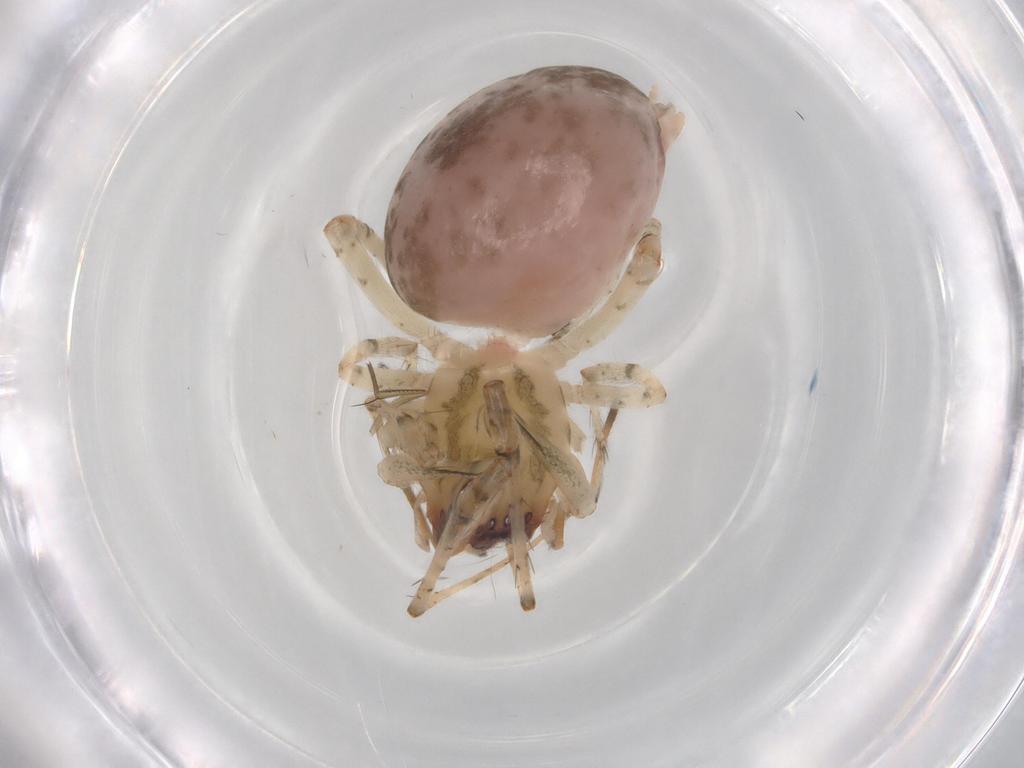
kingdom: Animalia
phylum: Arthropoda
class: Arachnida
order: Araneae
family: Anyphaenidae
